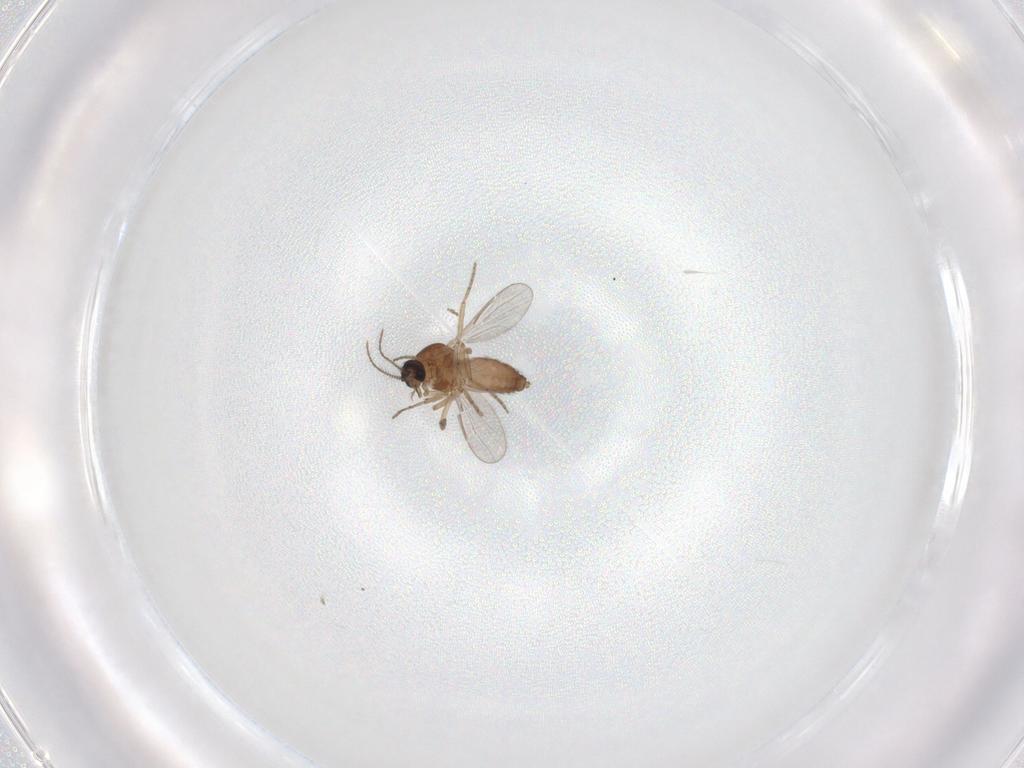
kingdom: Animalia
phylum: Arthropoda
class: Insecta
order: Diptera
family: Ceratopogonidae
